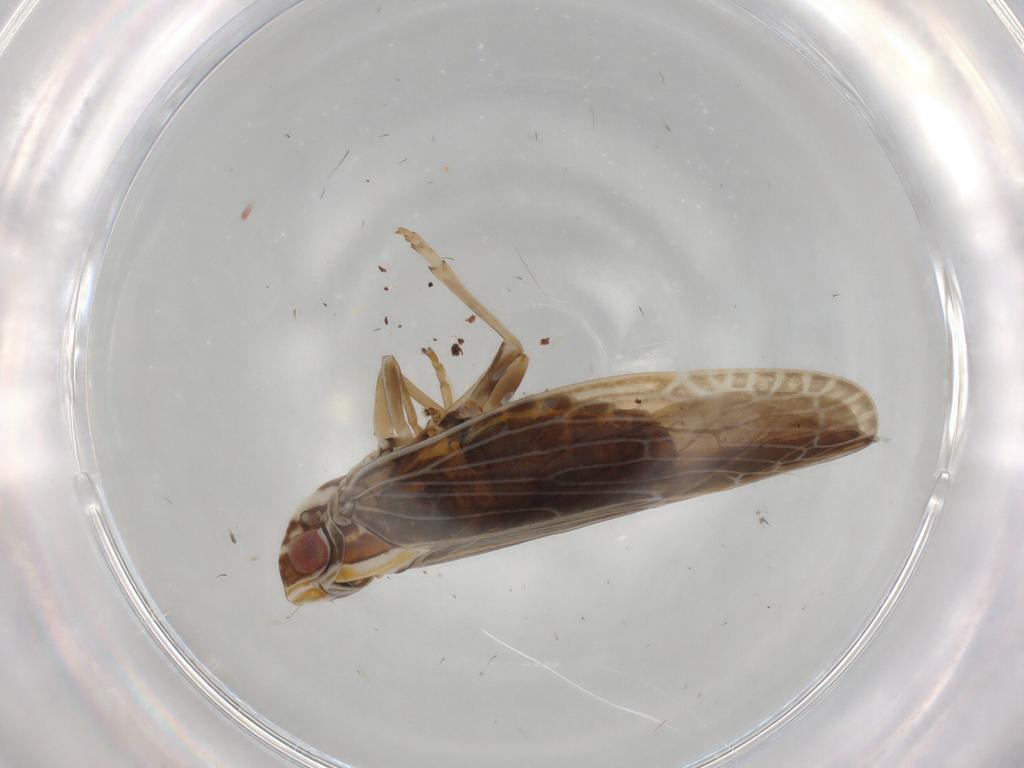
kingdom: Animalia
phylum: Arthropoda
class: Insecta
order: Hemiptera
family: Achilidae
